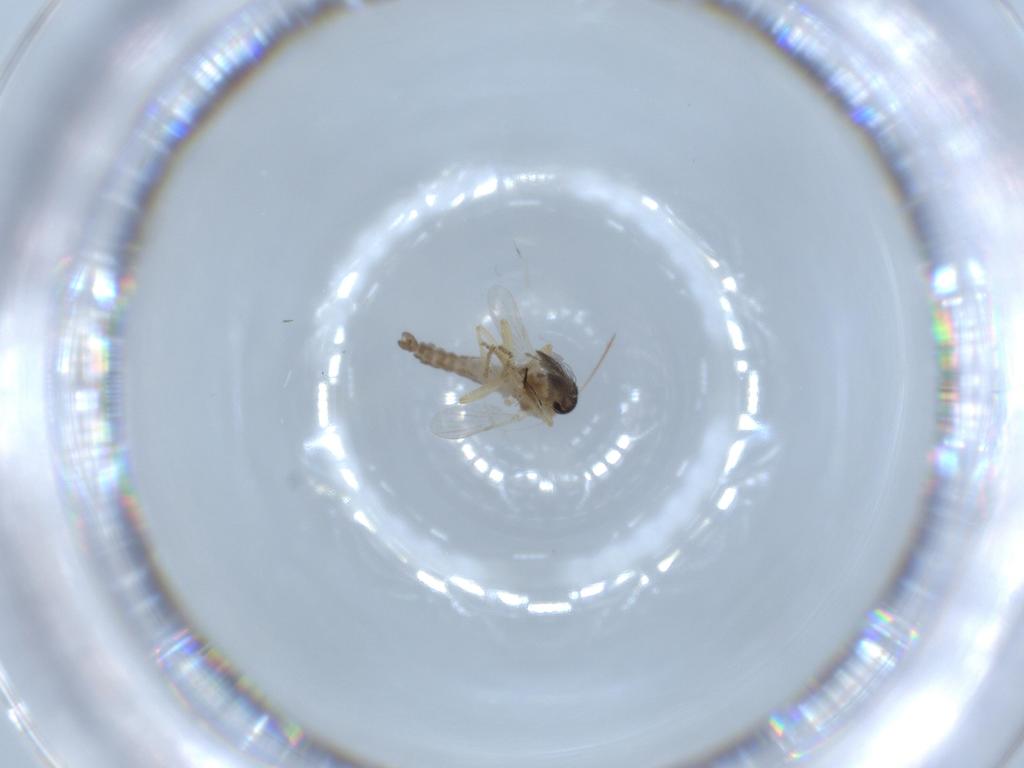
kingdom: Animalia
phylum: Arthropoda
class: Insecta
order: Diptera
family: Ceratopogonidae
